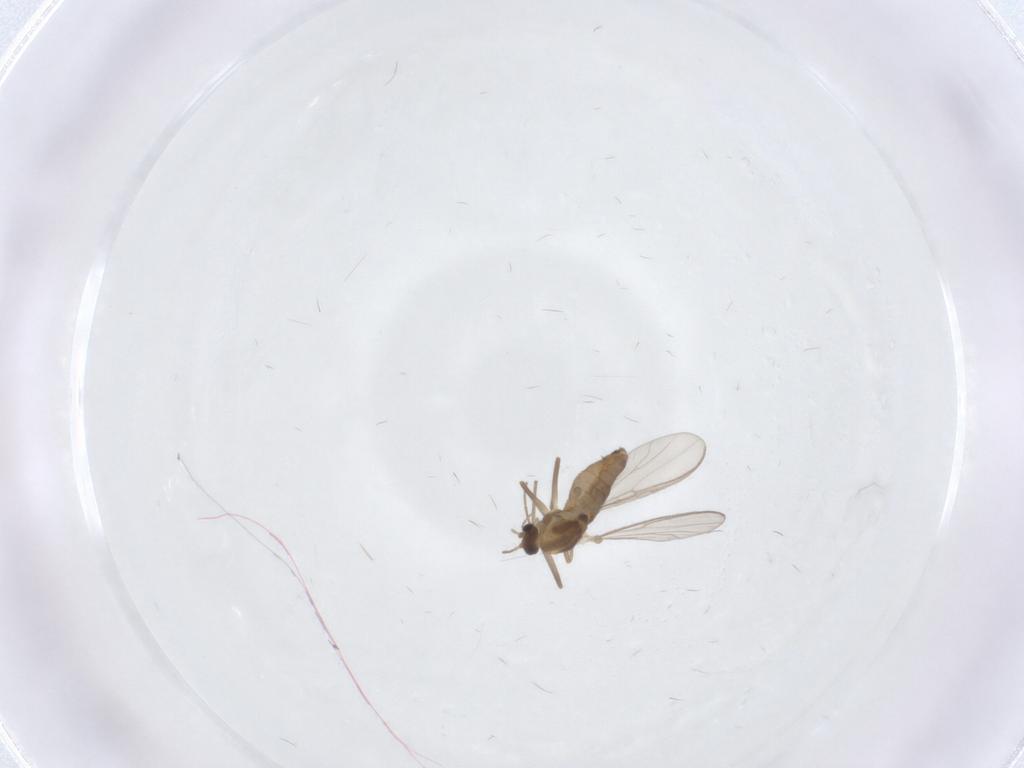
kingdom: Animalia
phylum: Arthropoda
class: Insecta
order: Diptera
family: Chironomidae
